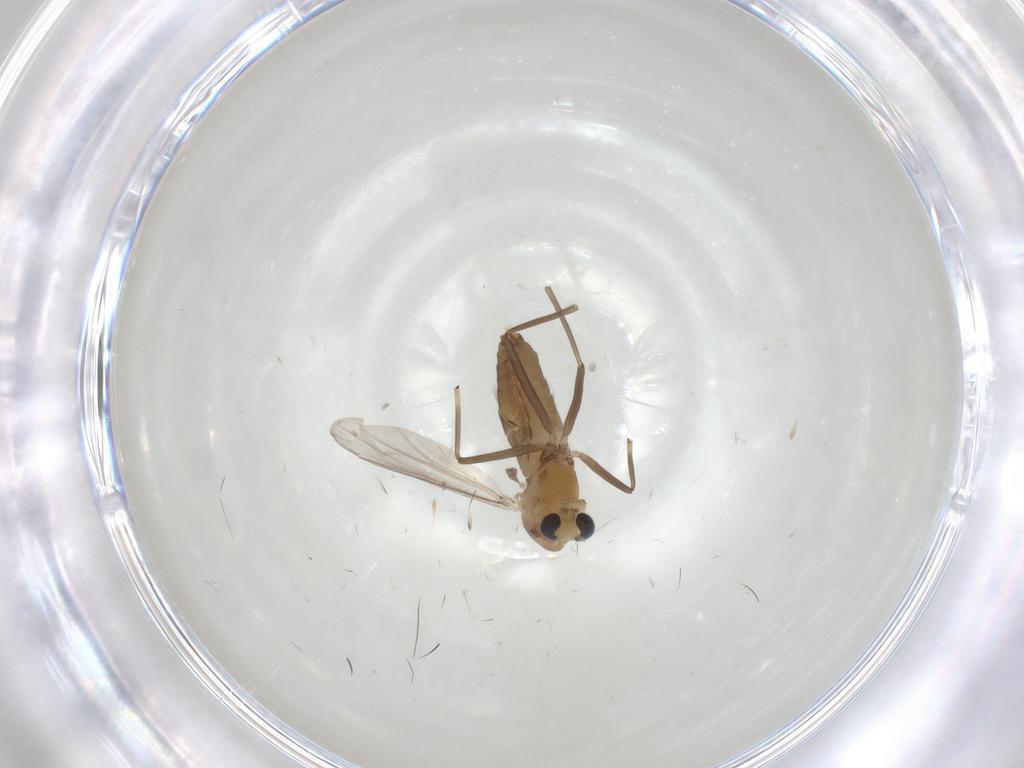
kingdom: Animalia
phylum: Arthropoda
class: Insecta
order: Diptera
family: Chironomidae
